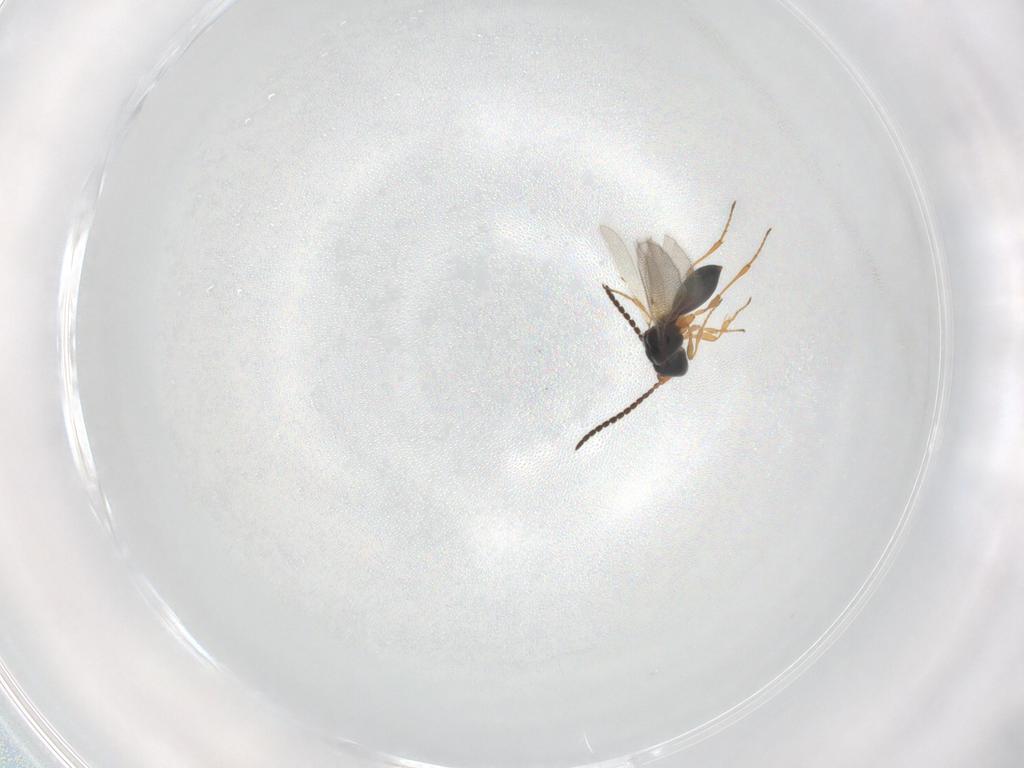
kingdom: Animalia
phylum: Arthropoda
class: Insecta
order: Hymenoptera
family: Diapriidae
